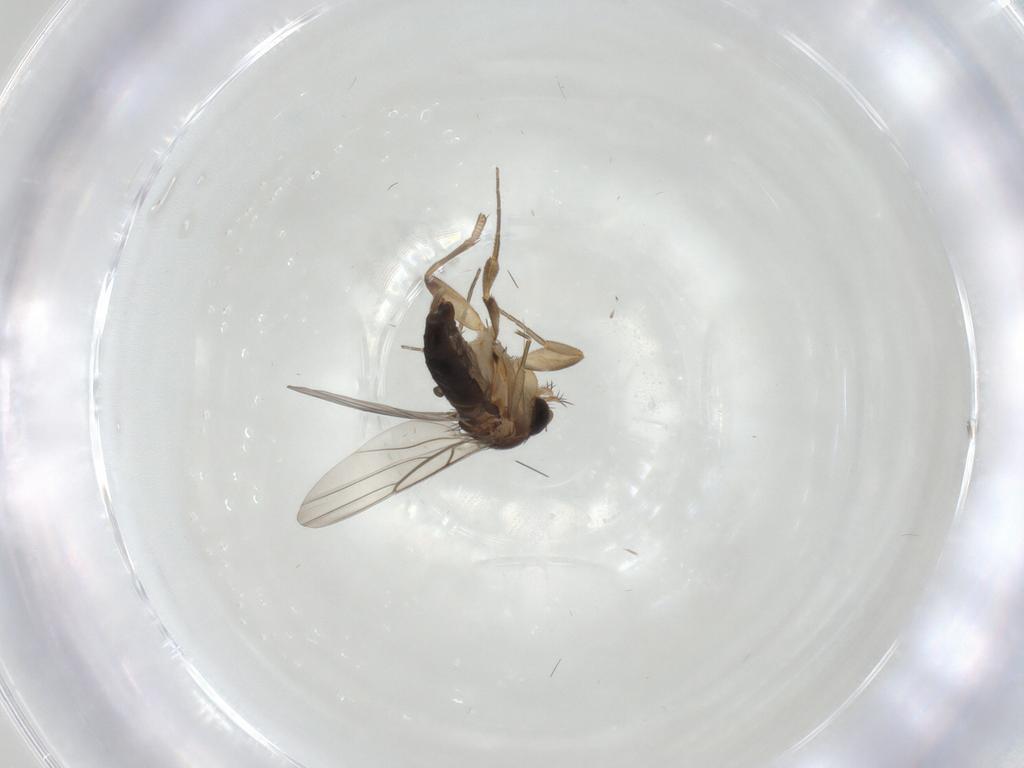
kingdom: Animalia
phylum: Arthropoda
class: Insecta
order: Diptera
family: Phoridae
